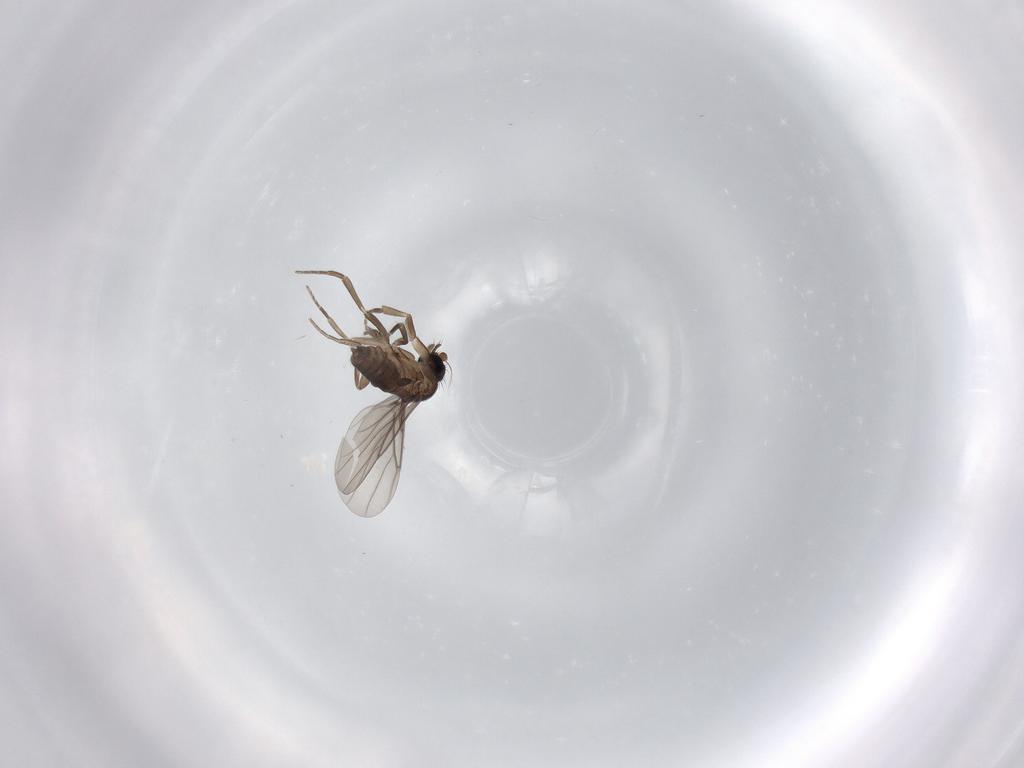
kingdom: Animalia
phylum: Arthropoda
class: Insecta
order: Diptera
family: Phoridae
